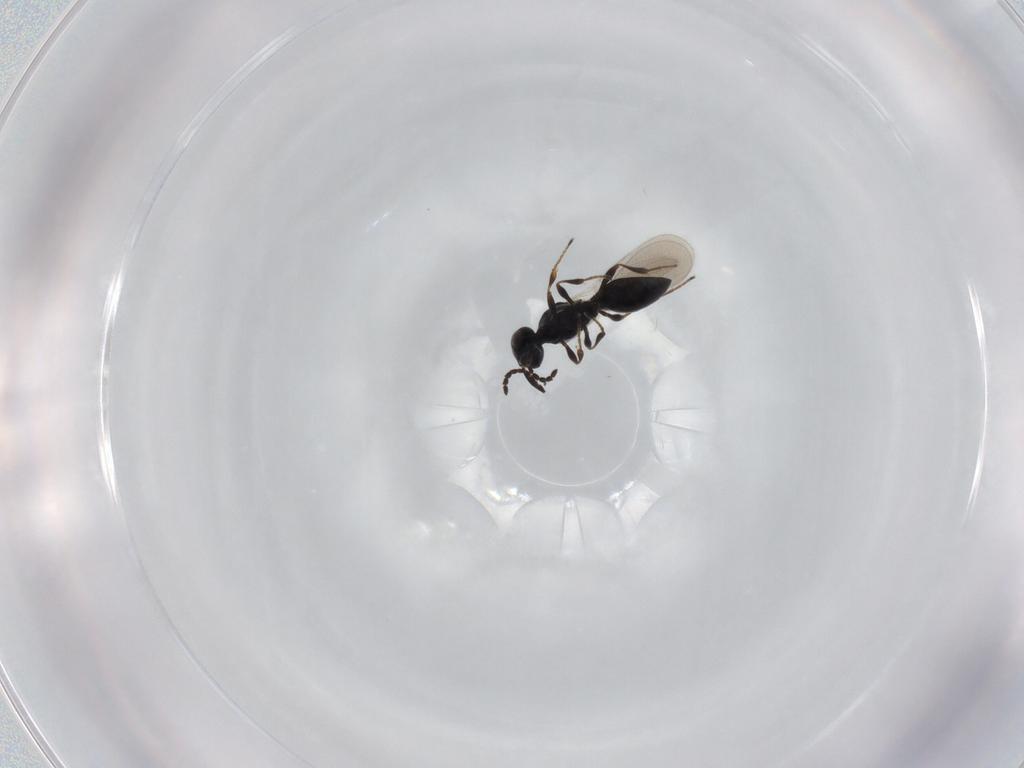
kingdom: Animalia
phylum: Arthropoda
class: Insecta
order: Hymenoptera
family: Platygastridae
